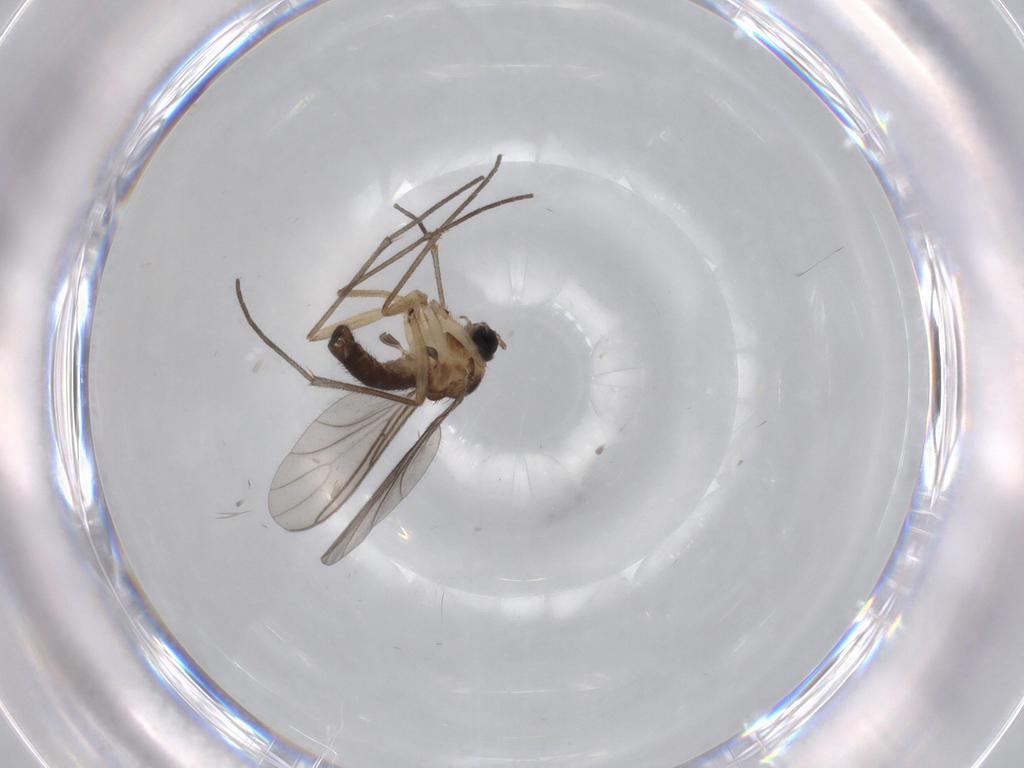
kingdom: Animalia
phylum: Arthropoda
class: Insecta
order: Diptera
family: Sciaridae
